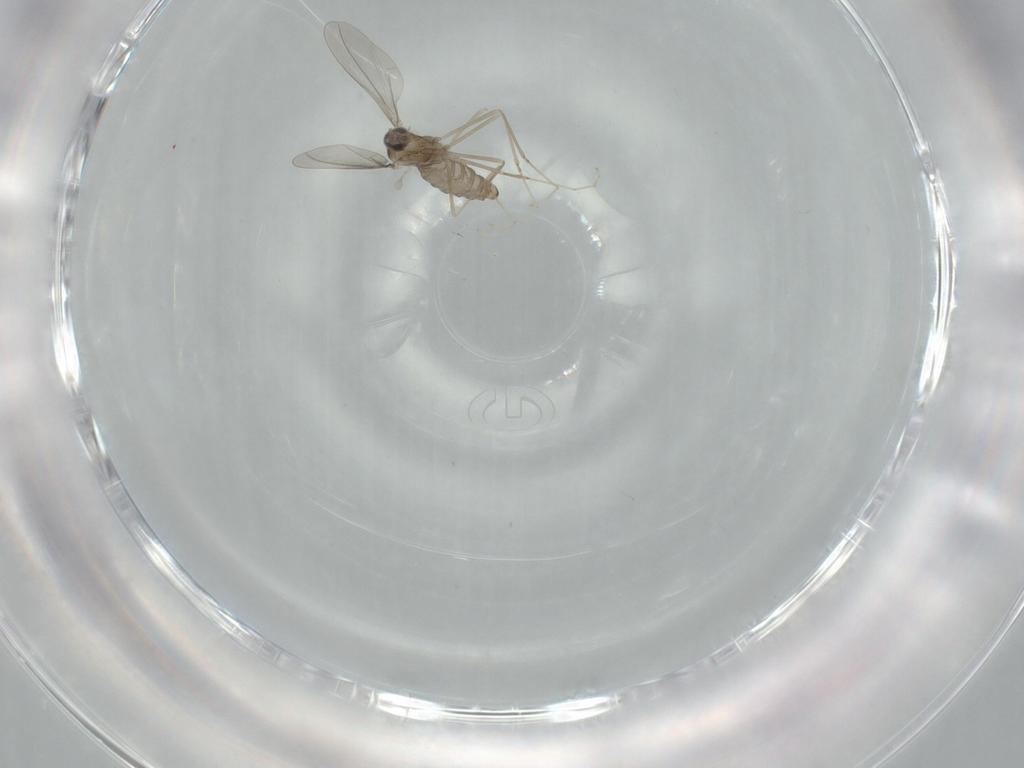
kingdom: Animalia
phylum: Arthropoda
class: Insecta
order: Diptera
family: Cecidomyiidae
